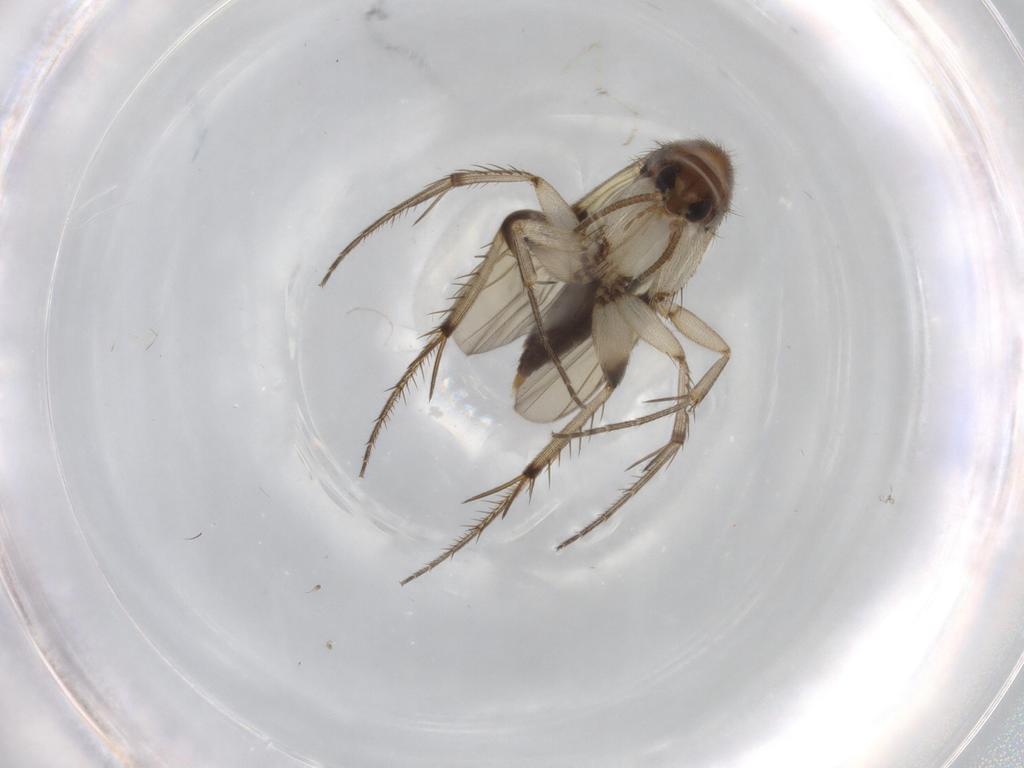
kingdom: Animalia
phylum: Arthropoda
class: Insecta
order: Diptera
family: Mycetophilidae
